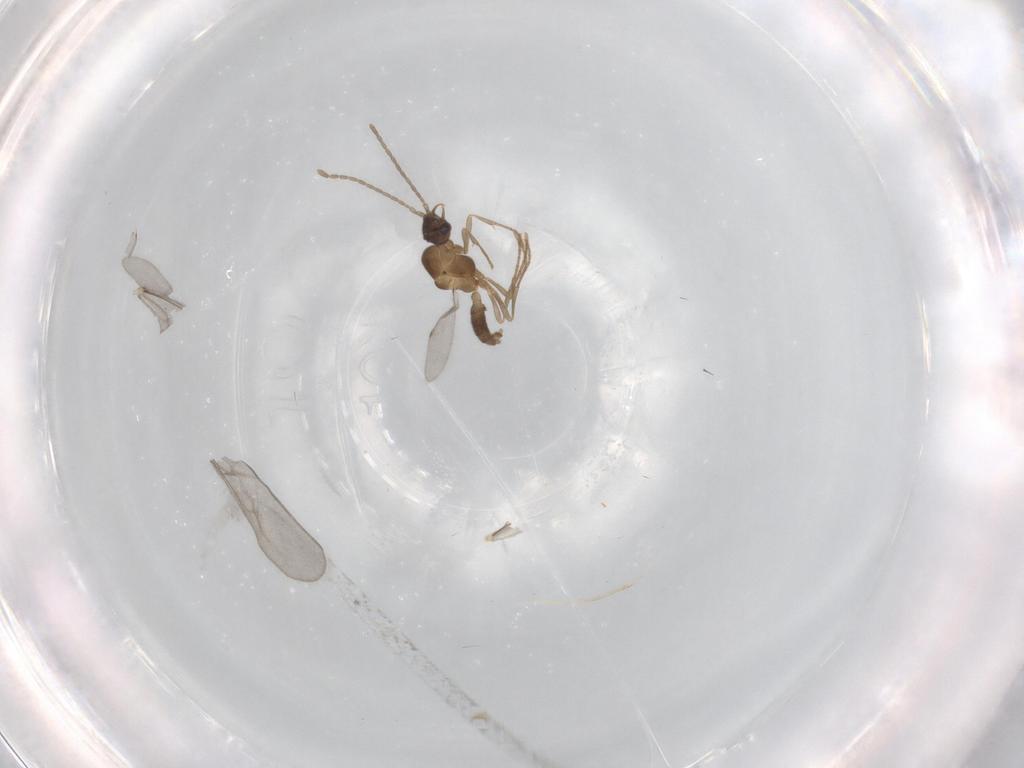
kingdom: Animalia
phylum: Arthropoda
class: Insecta
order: Hymenoptera
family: Formicidae
